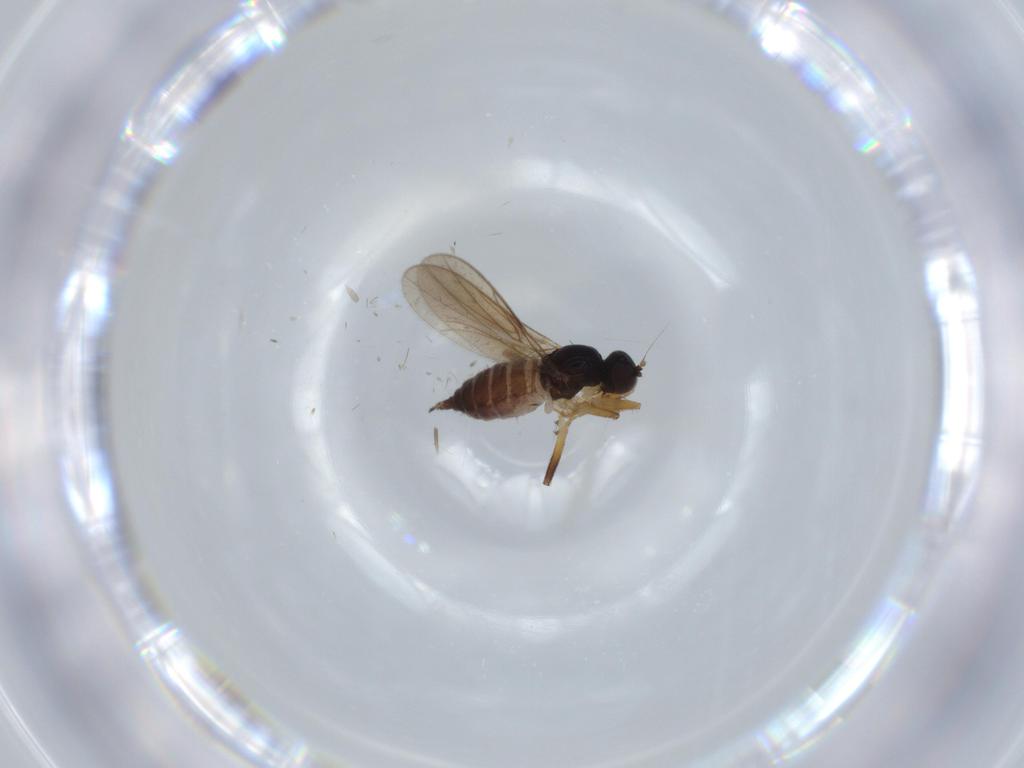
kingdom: Animalia
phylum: Arthropoda
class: Insecta
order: Diptera
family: Hybotidae
